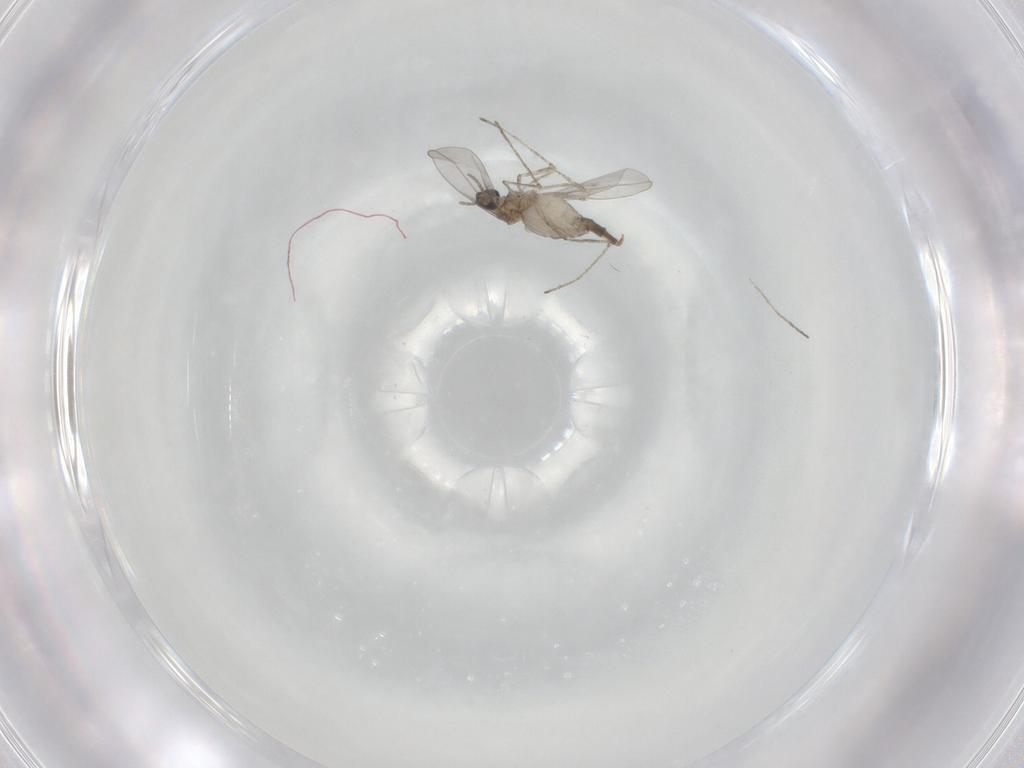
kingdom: Animalia
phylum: Arthropoda
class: Insecta
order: Diptera
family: Cecidomyiidae
